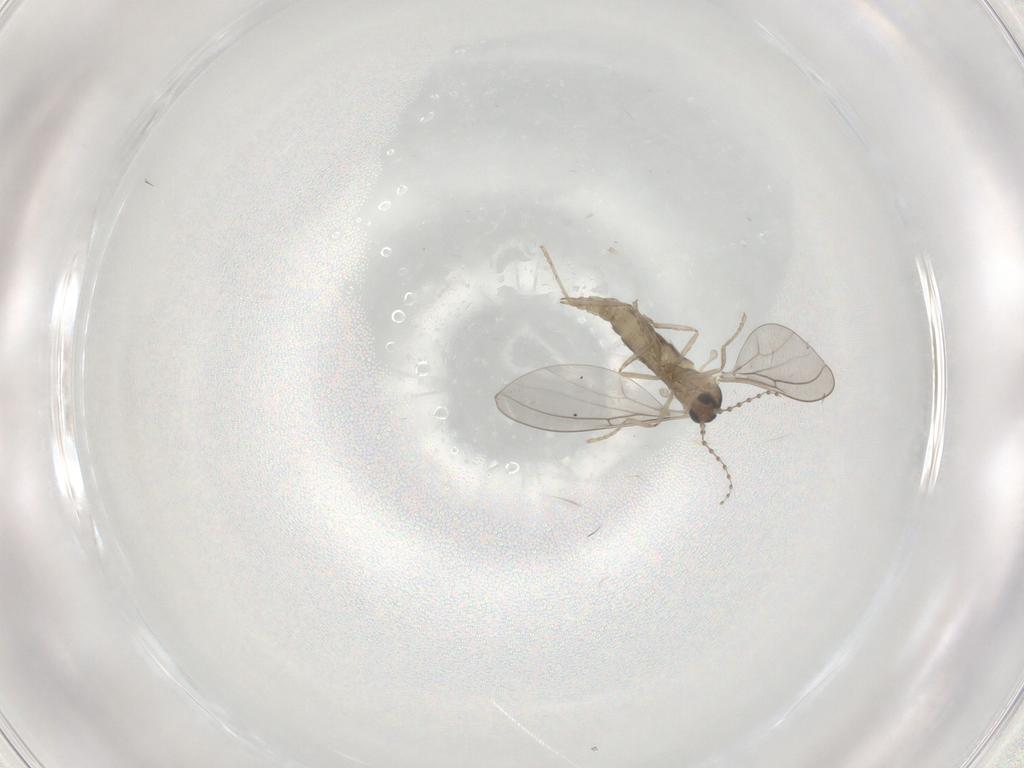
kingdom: Animalia
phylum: Arthropoda
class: Insecta
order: Diptera
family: Cecidomyiidae
